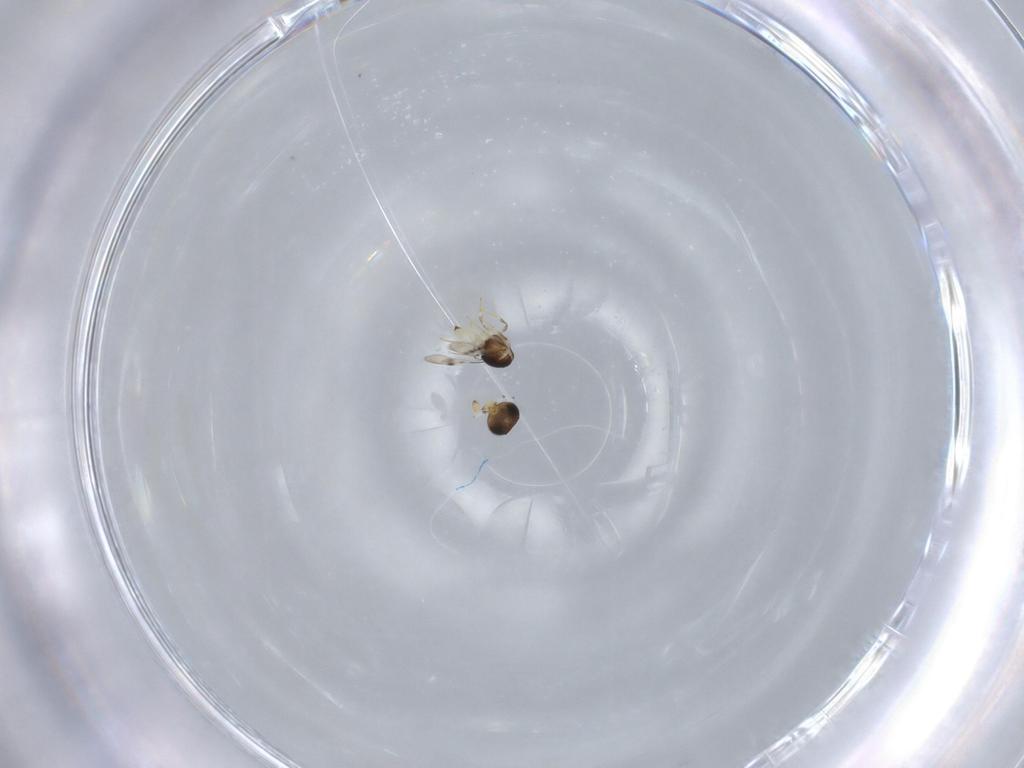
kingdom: Animalia
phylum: Arthropoda
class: Insecta
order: Hymenoptera
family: Scelionidae
